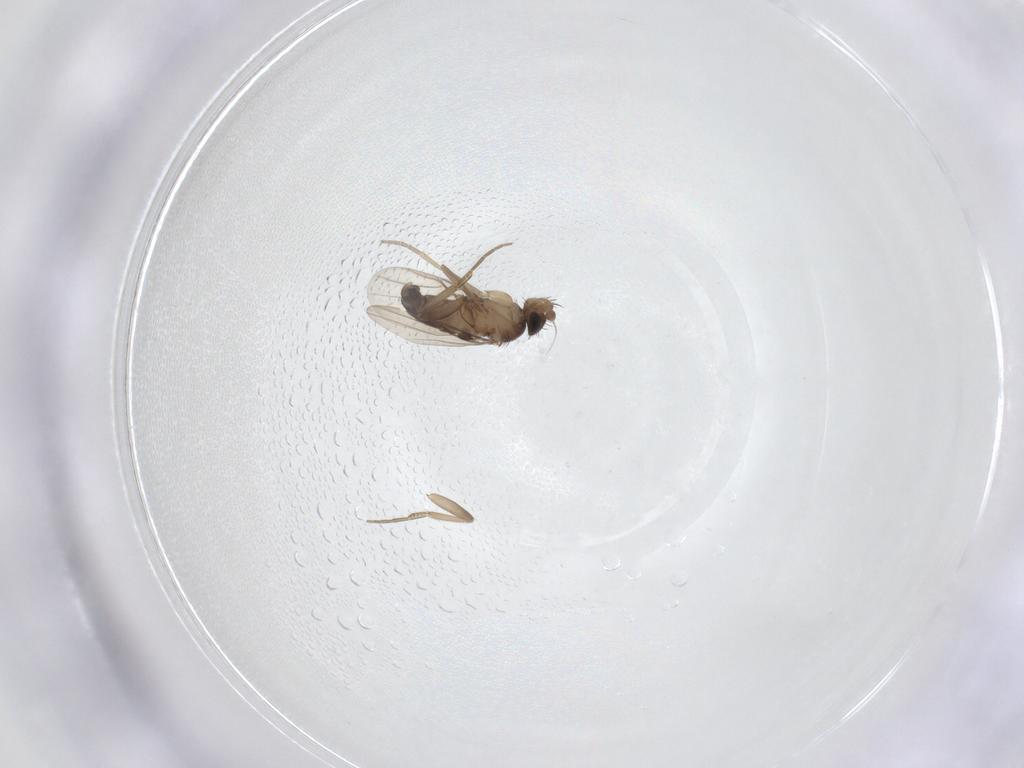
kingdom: Animalia
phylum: Arthropoda
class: Insecta
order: Diptera
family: Phoridae
